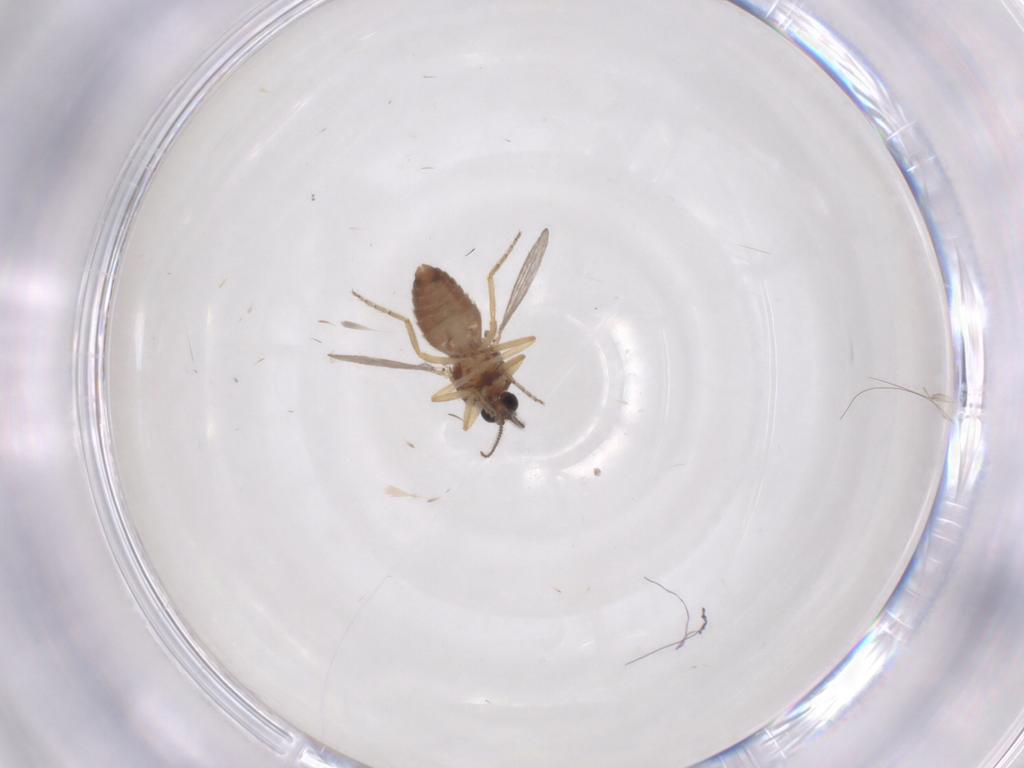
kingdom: Animalia
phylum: Arthropoda
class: Insecta
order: Diptera
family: Ceratopogonidae
